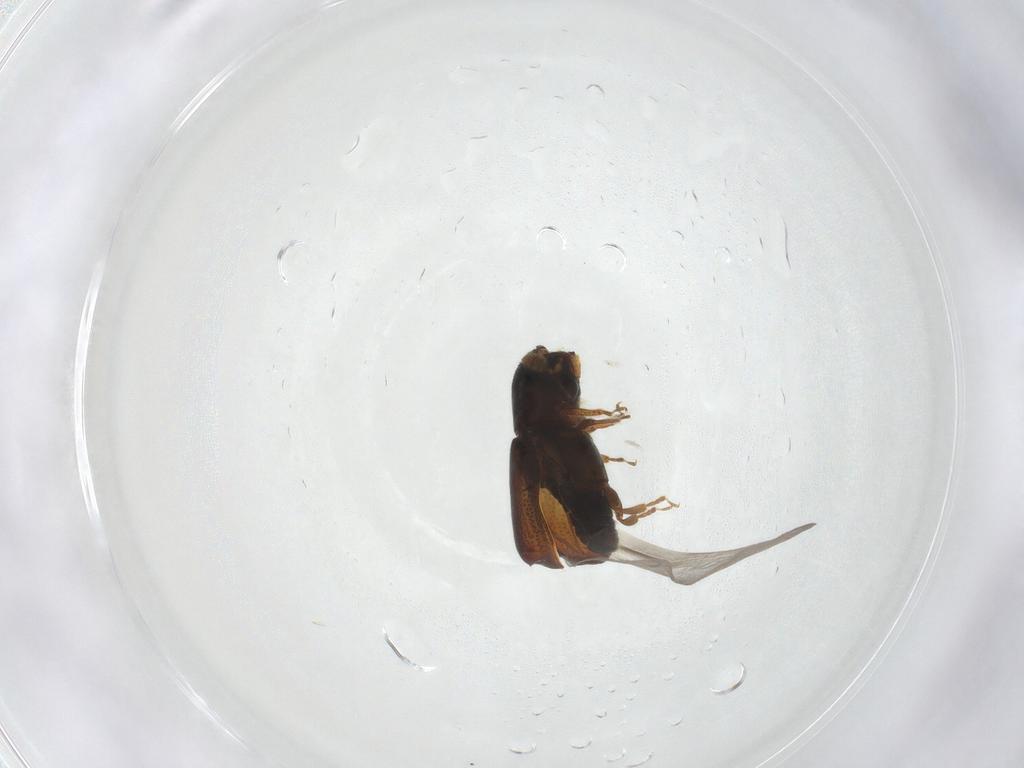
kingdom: Animalia
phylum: Arthropoda
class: Insecta
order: Coleoptera
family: Curculionidae
